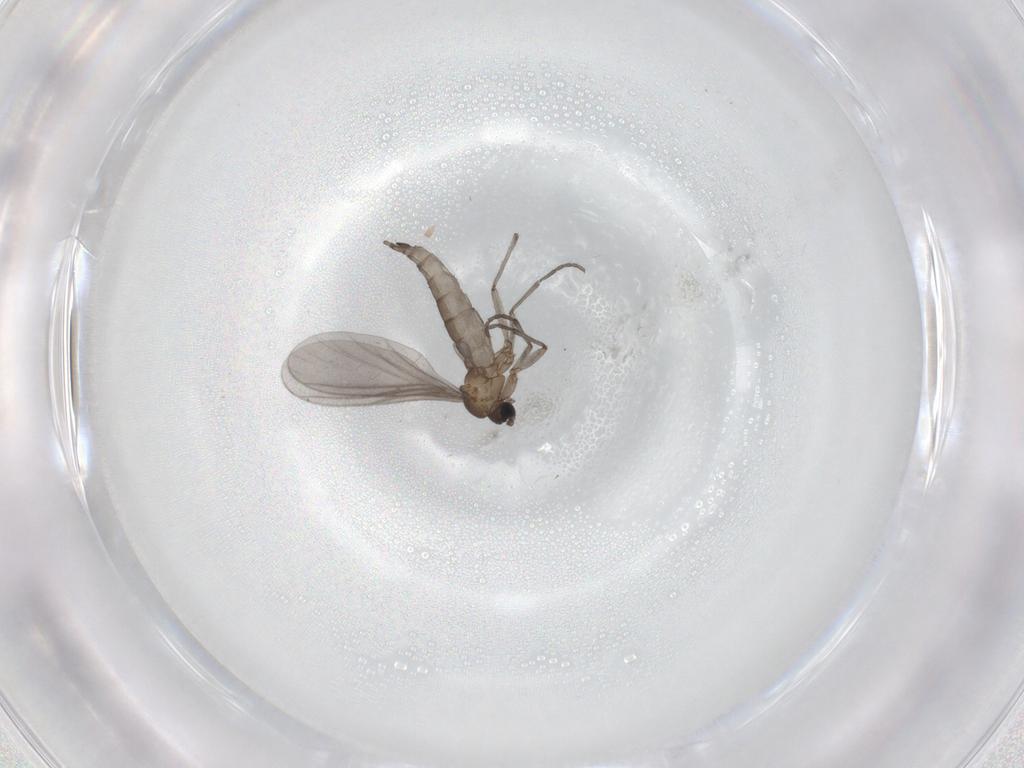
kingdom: Animalia
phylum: Arthropoda
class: Insecta
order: Diptera
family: Sciaridae
